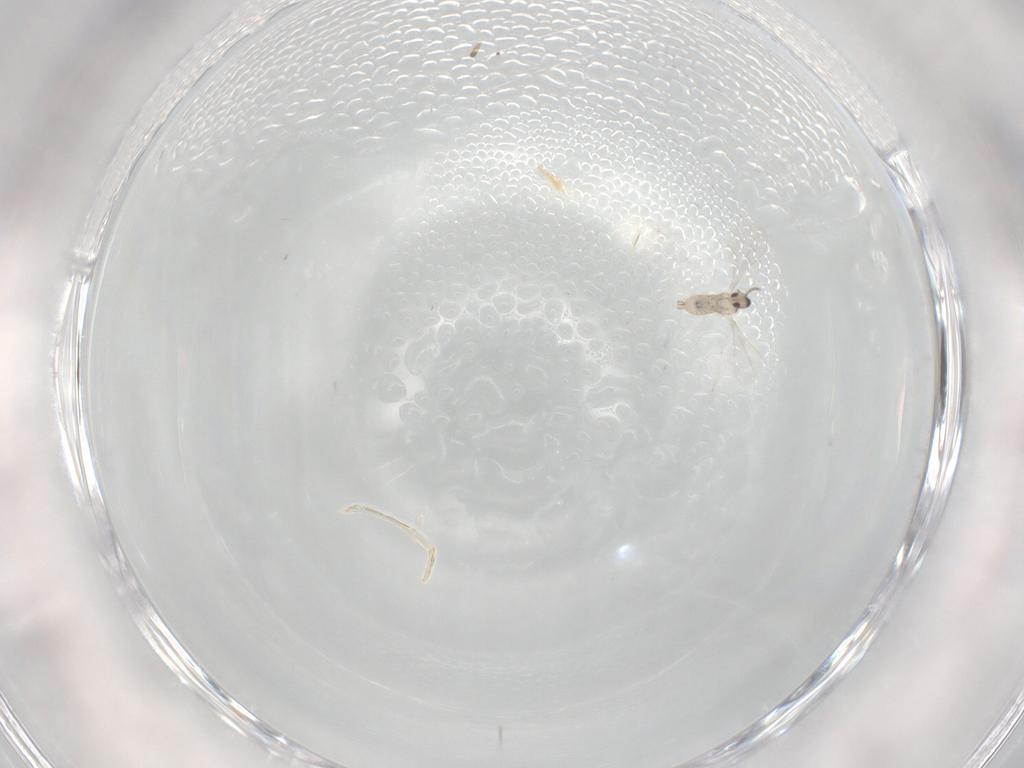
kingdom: Animalia
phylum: Arthropoda
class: Insecta
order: Diptera
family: Cecidomyiidae
